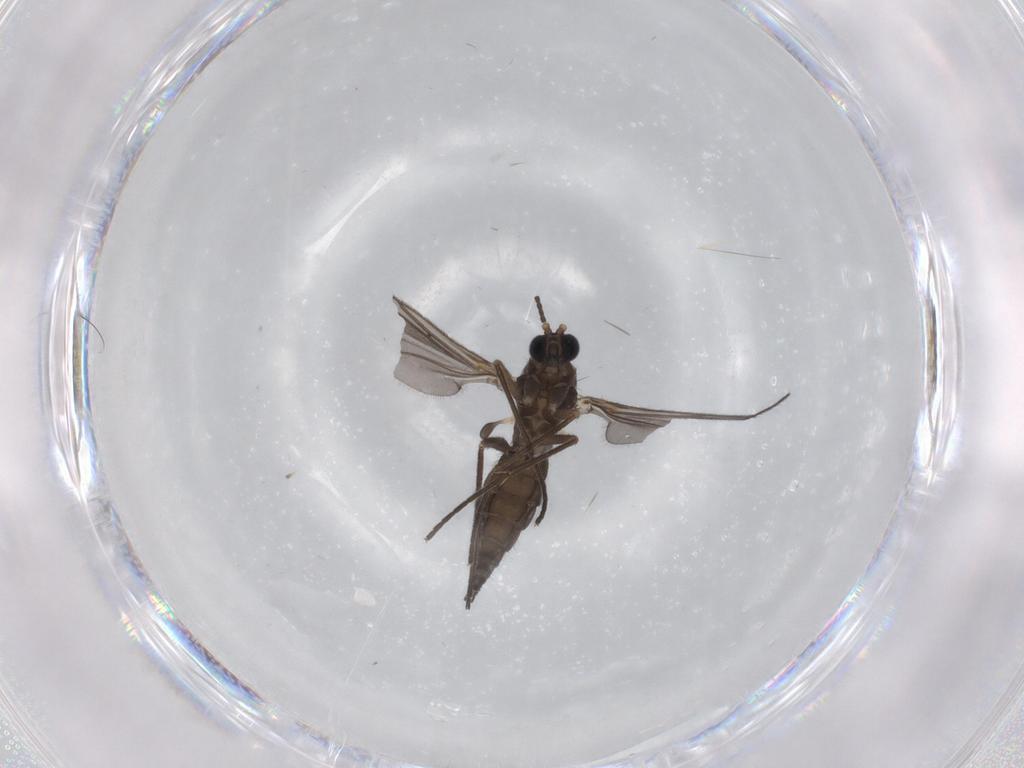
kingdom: Animalia
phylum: Arthropoda
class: Insecta
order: Diptera
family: Sciaridae
